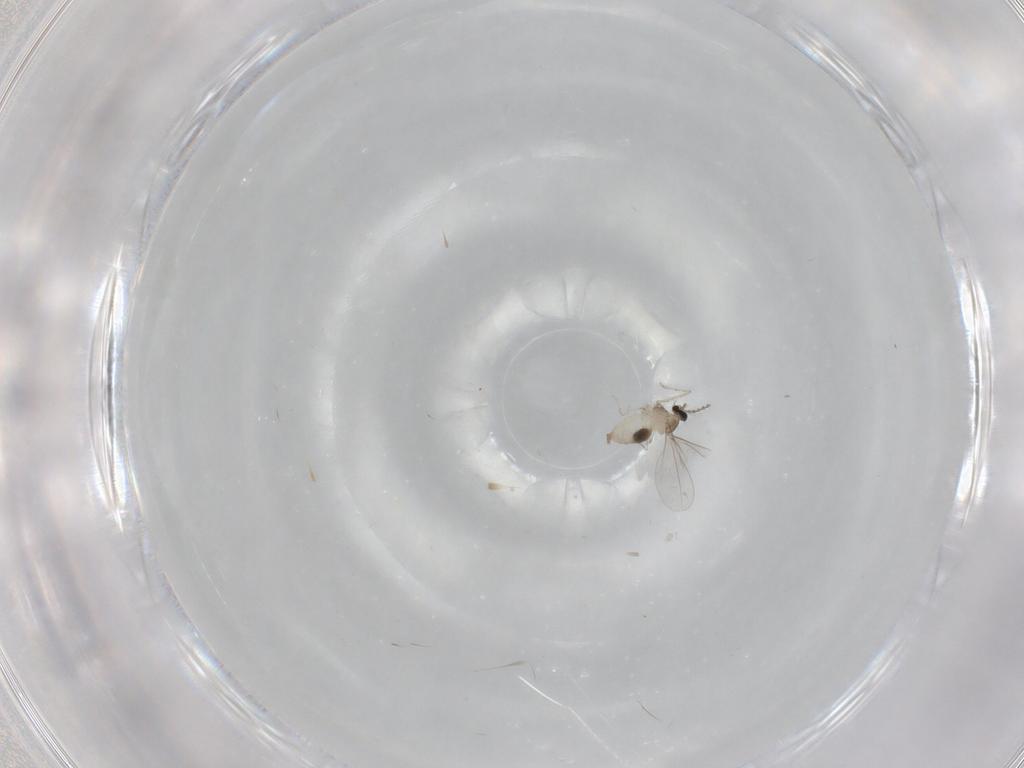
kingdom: Animalia
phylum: Arthropoda
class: Insecta
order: Diptera
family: Cecidomyiidae
